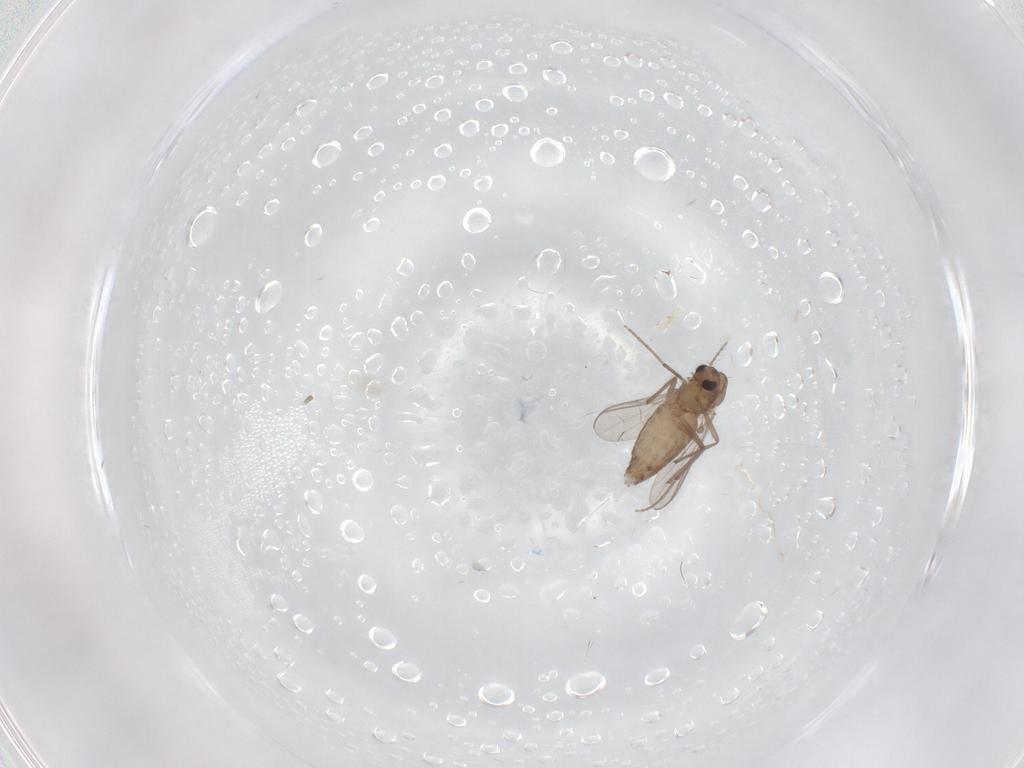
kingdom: Animalia
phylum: Arthropoda
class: Insecta
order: Diptera
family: Chironomidae
